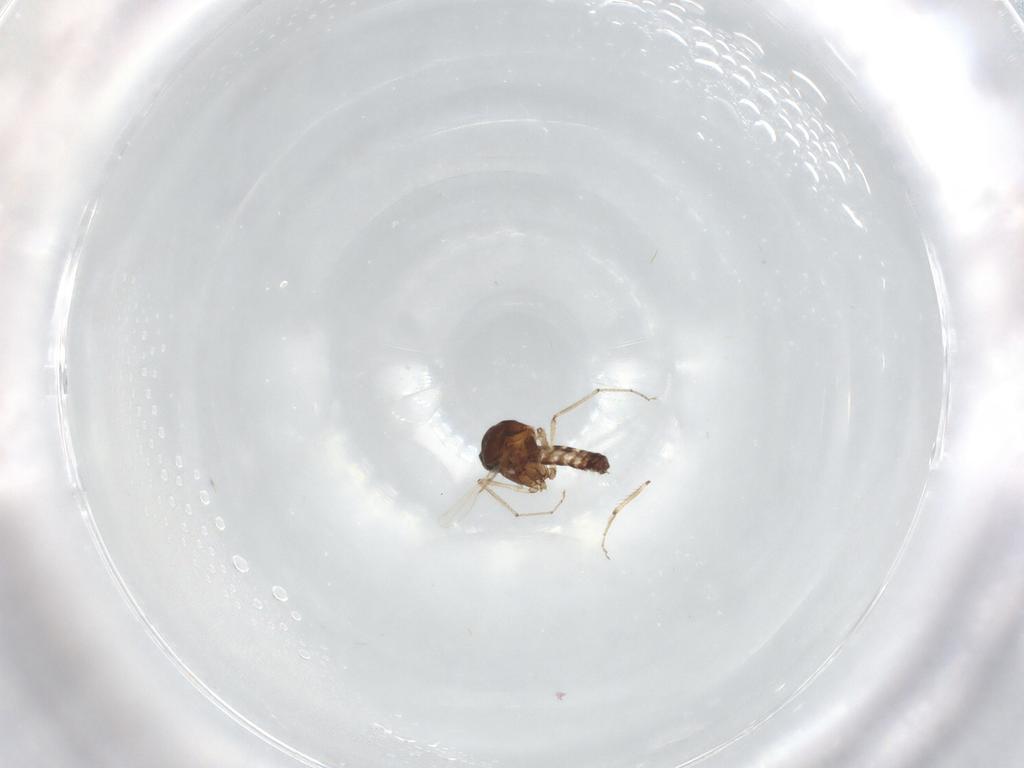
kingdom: Animalia
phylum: Arthropoda
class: Insecta
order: Diptera
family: Ceratopogonidae
